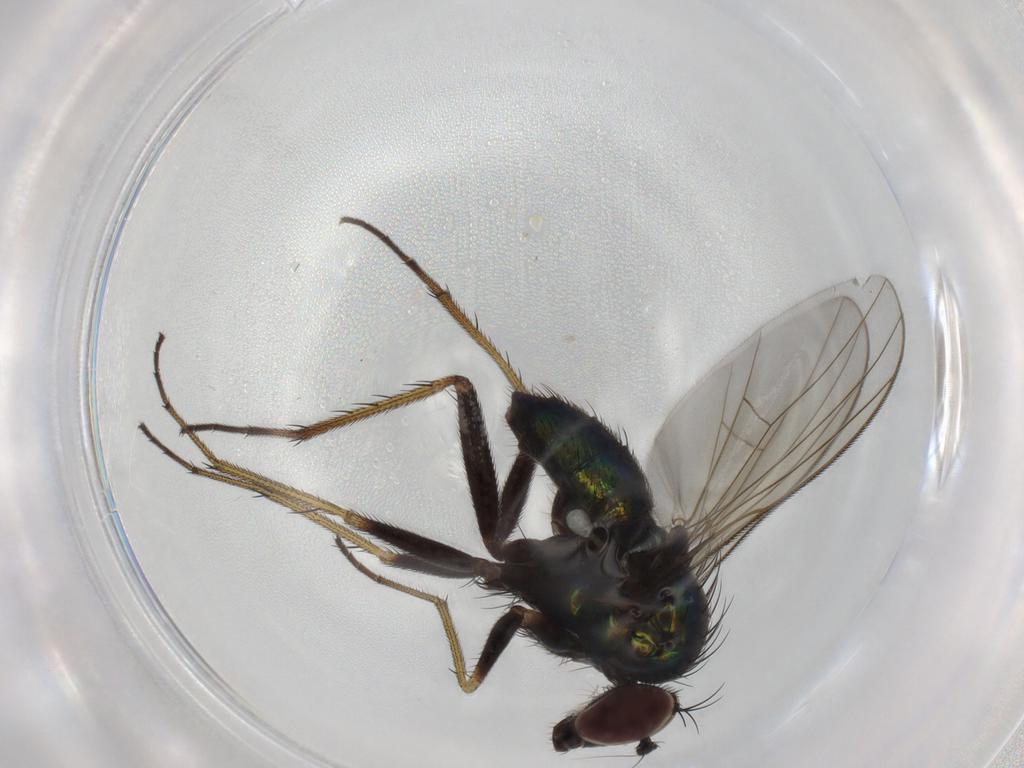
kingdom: Animalia
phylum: Arthropoda
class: Insecta
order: Diptera
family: Dolichopodidae
